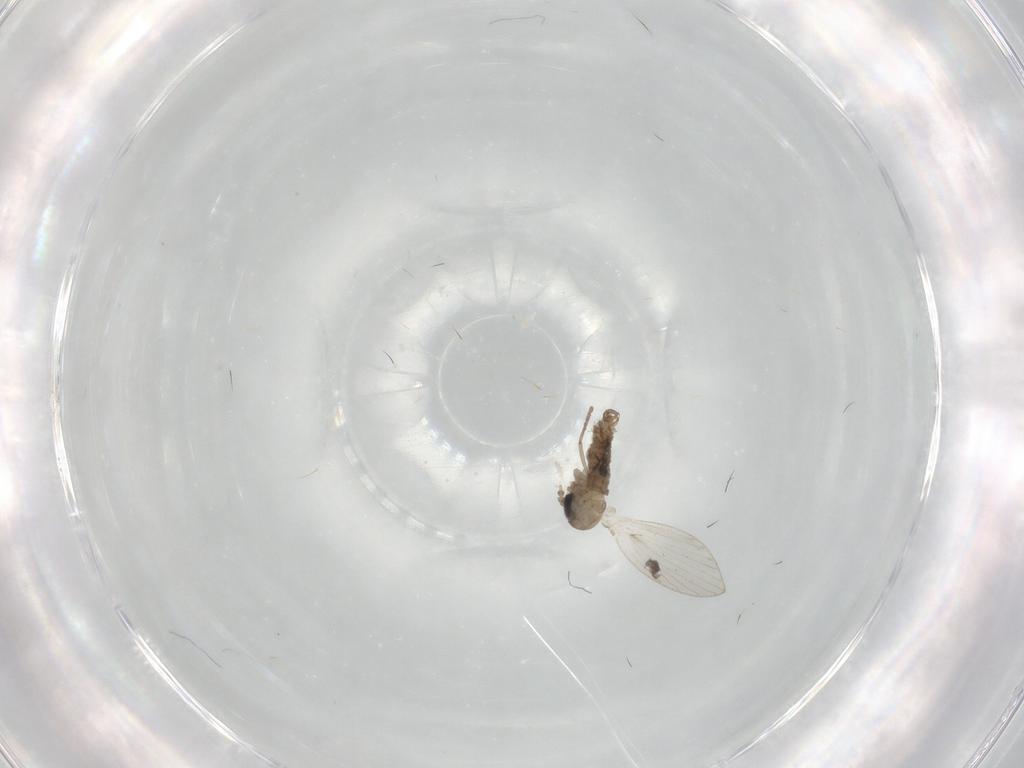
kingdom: Animalia
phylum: Arthropoda
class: Insecta
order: Diptera
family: Psychodidae
